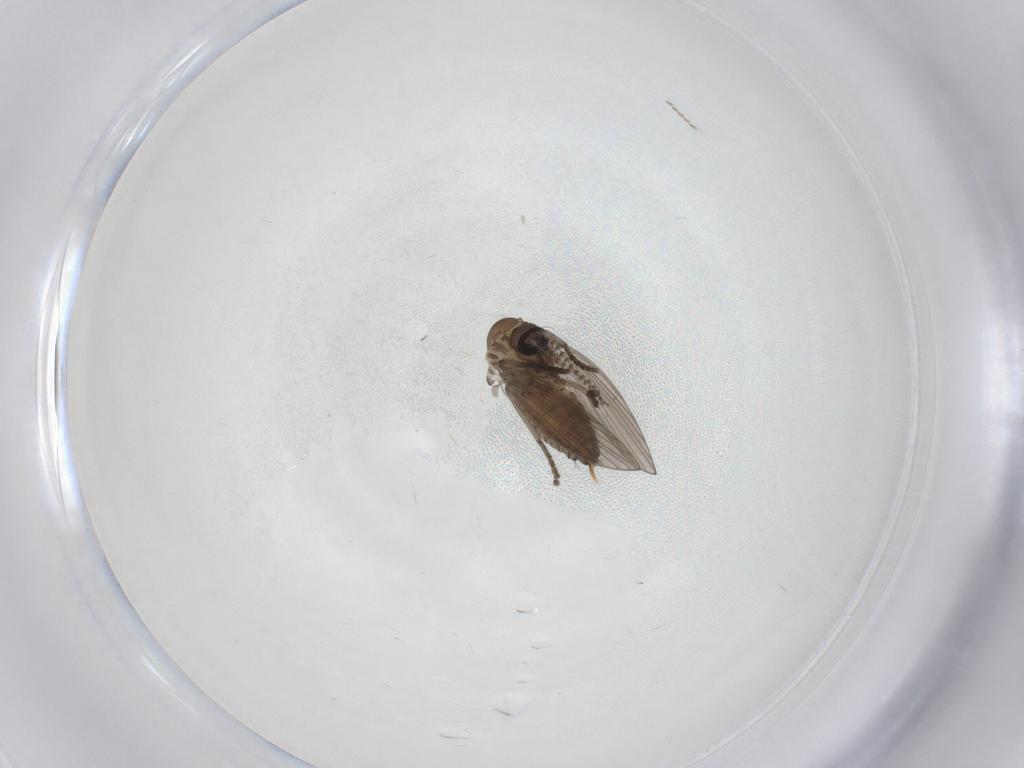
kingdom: Animalia
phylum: Arthropoda
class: Insecta
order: Diptera
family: Psychodidae
